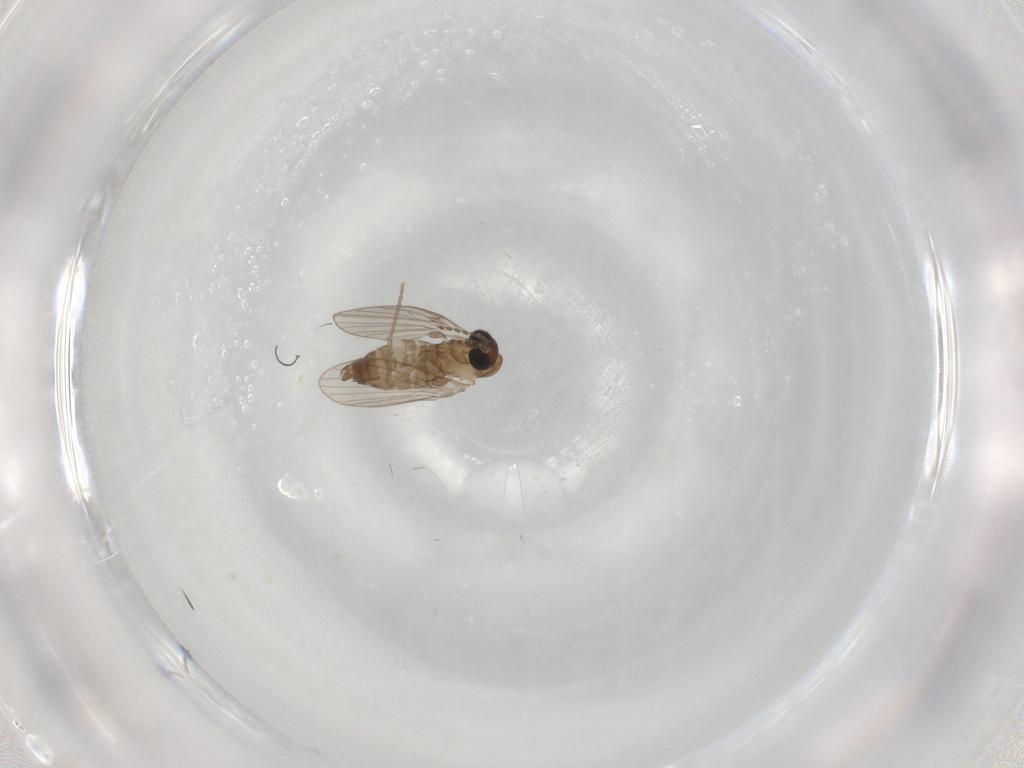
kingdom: Animalia
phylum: Arthropoda
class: Insecta
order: Diptera
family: Drosophilidae
